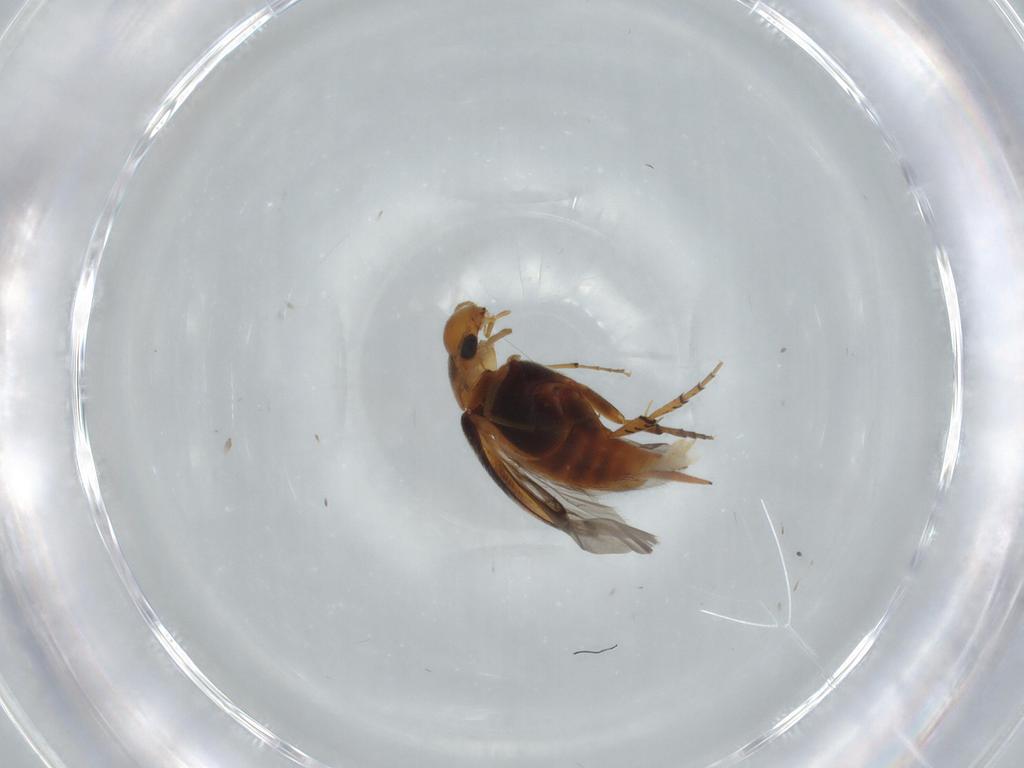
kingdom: Animalia
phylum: Arthropoda
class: Insecta
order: Coleoptera
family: Mordellidae
